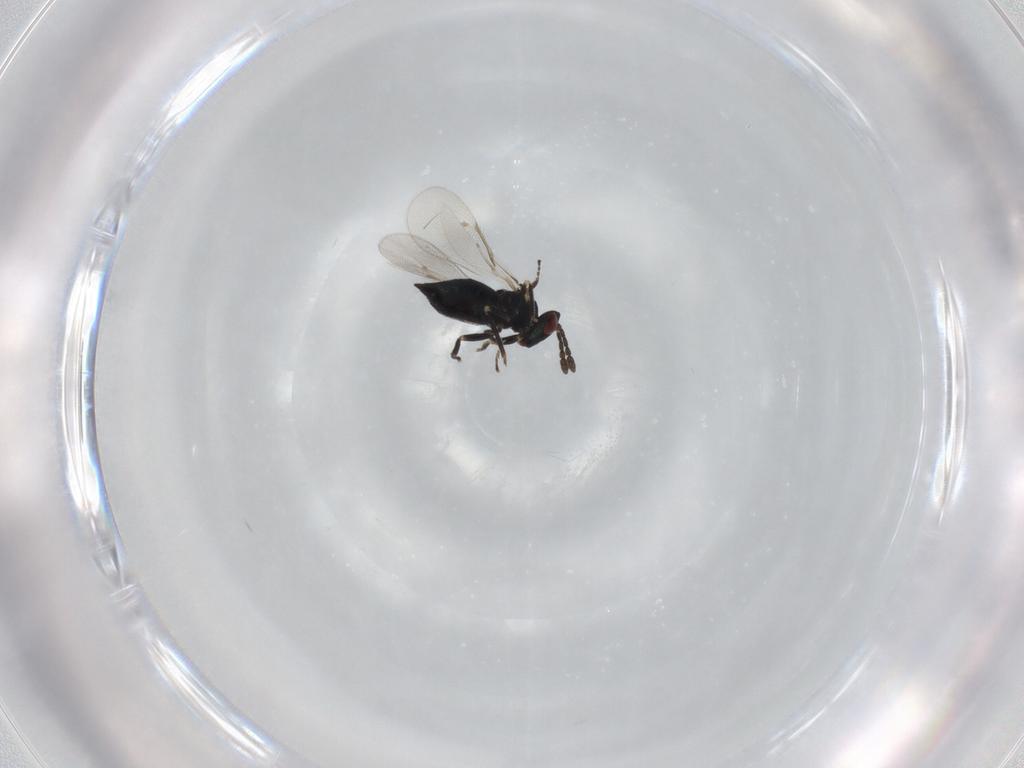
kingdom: Animalia
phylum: Arthropoda
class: Insecta
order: Hymenoptera
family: Eulophidae
